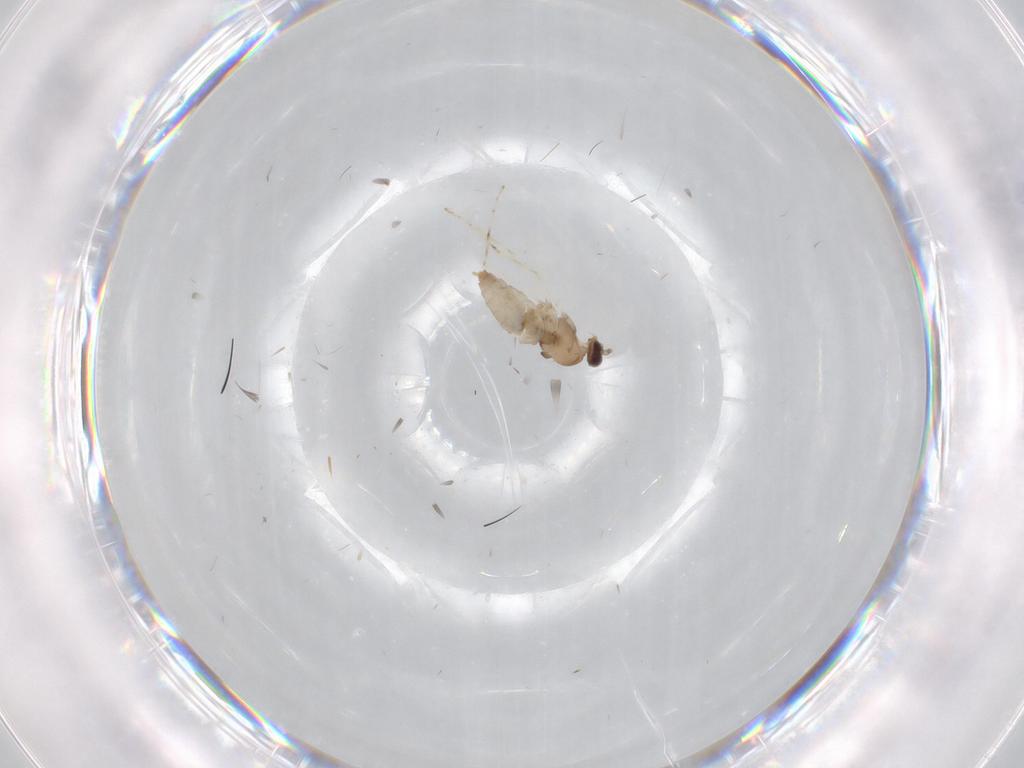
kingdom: Animalia
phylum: Arthropoda
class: Insecta
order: Diptera
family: Cecidomyiidae
